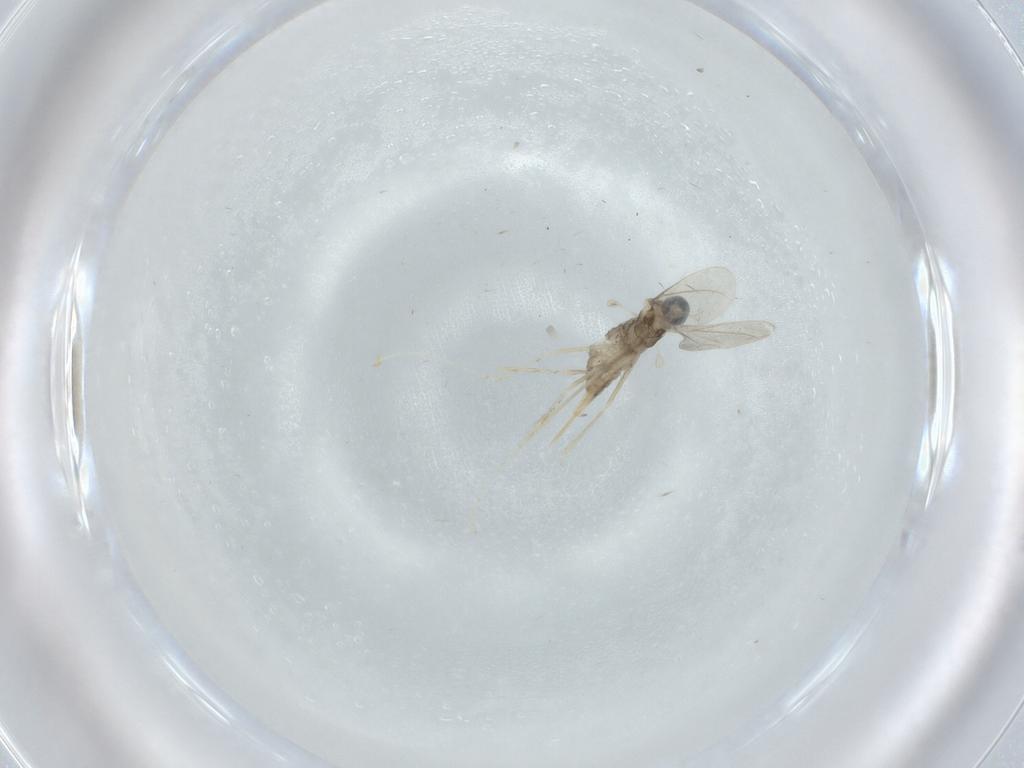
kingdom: Animalia
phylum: Arthropoda
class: Insecta
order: Diptera
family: Cecidomyiidae
